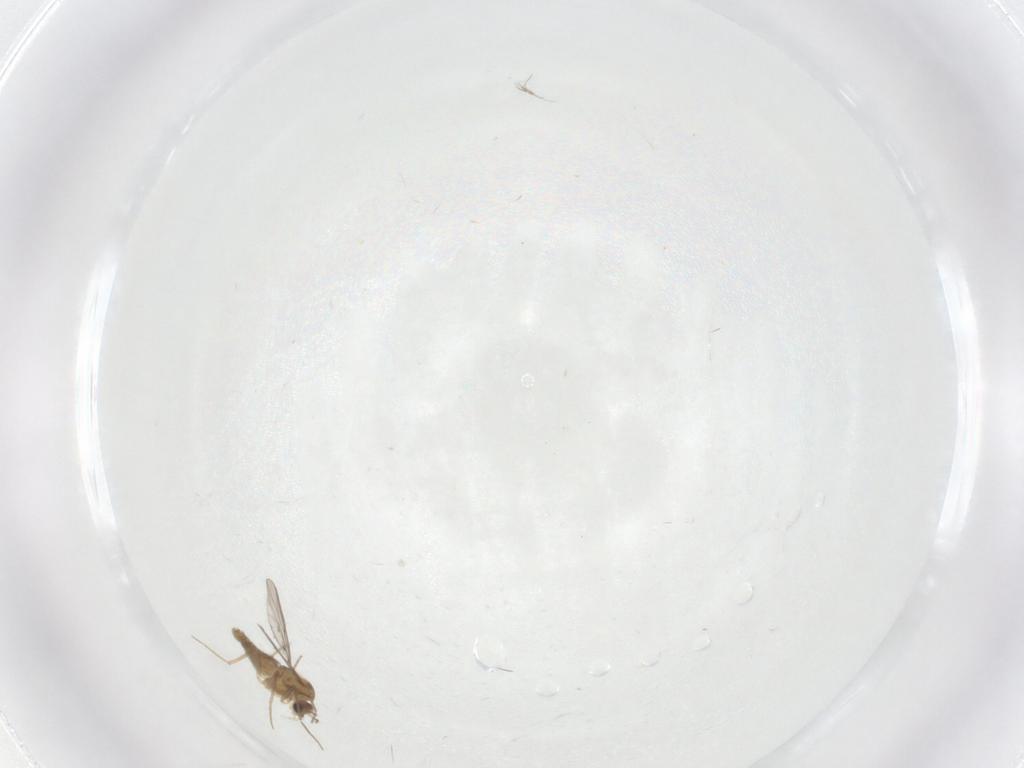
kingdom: Animalia
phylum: Arthropoda
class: Insecta
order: Diptera
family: Chironomidae
